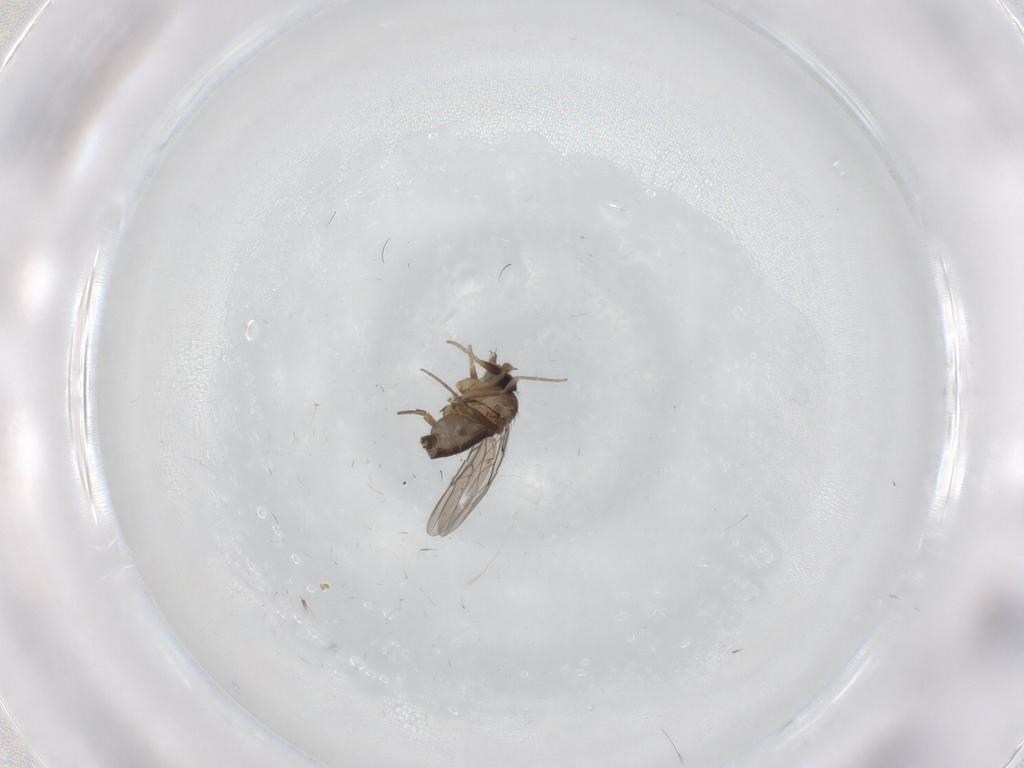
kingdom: Animalia
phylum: Arthropoda
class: Insecta
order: Diptera
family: Phoridae
